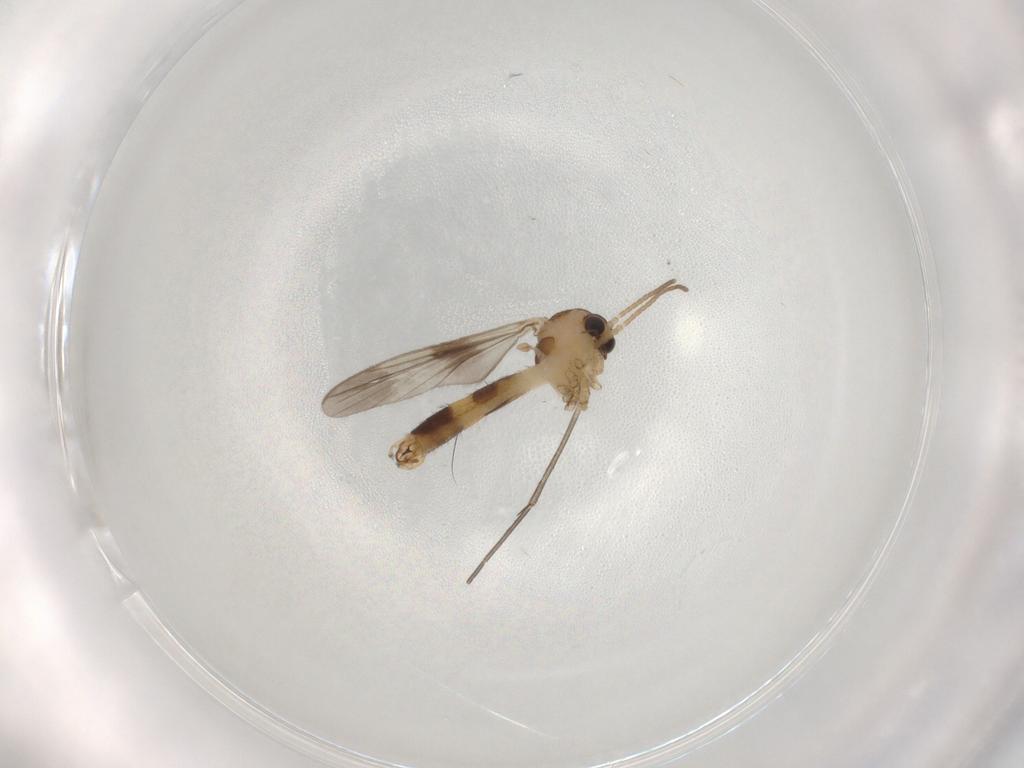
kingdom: Animalia
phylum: Arthropoda
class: Insecta
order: Diptera
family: Mycetophilidae
